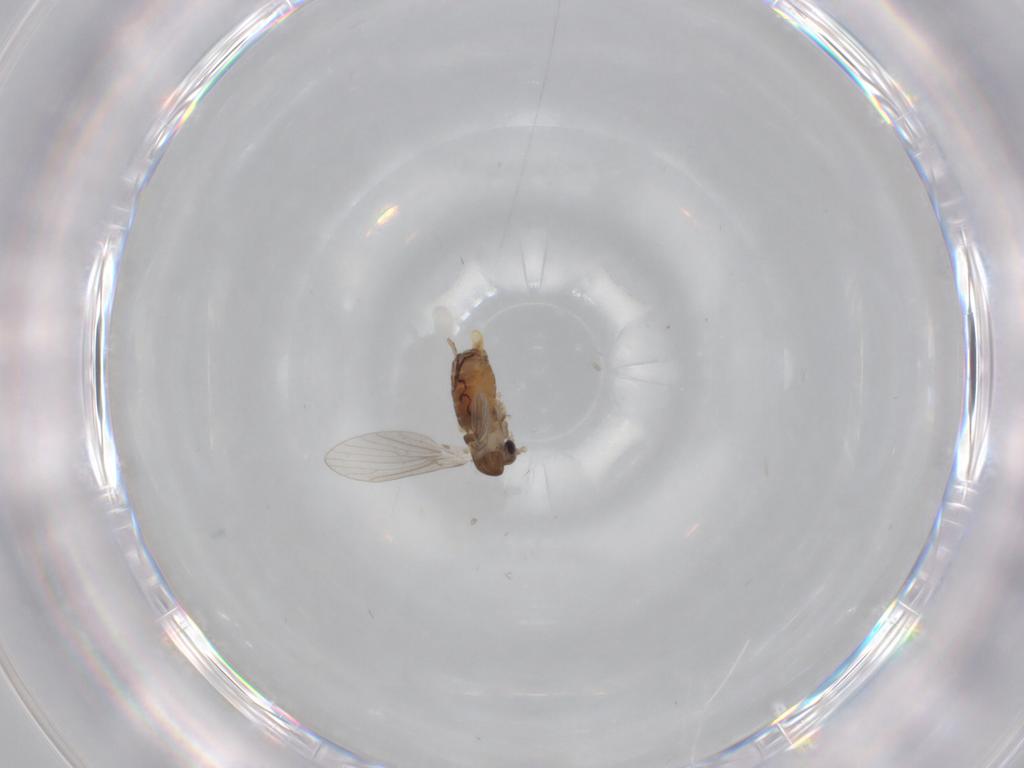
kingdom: Animalia
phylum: Arthropoda
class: Insecta
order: Diptera
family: Psychodidae
